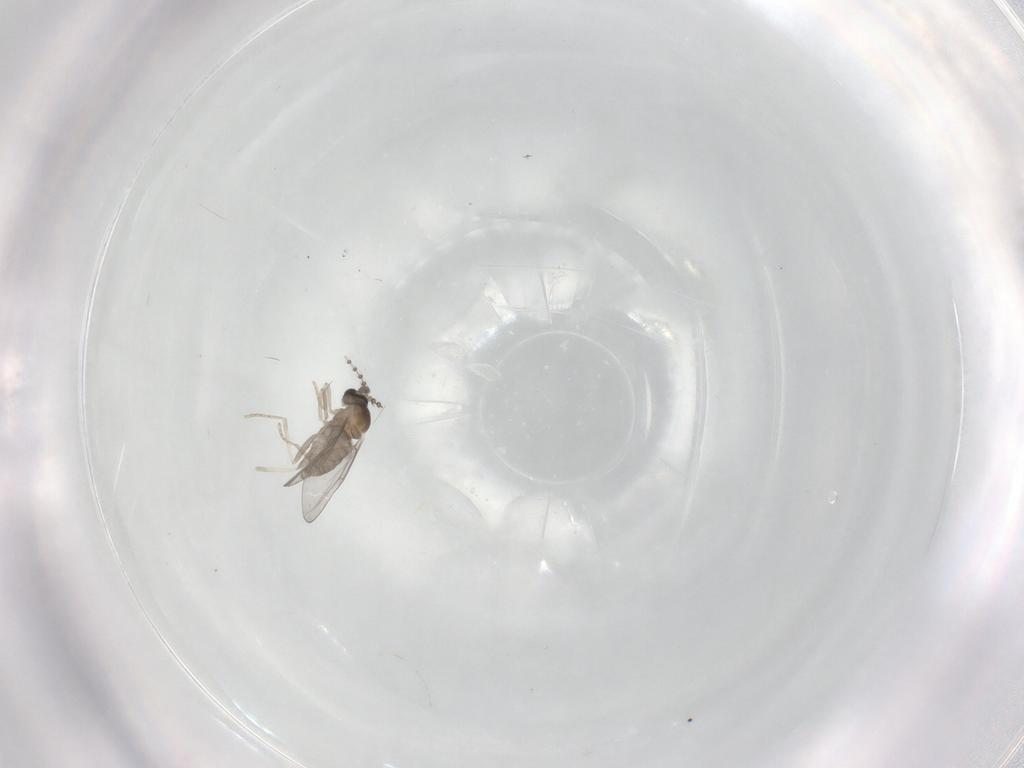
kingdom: Animalia
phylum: Arthropoda
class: Insecta
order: Diptera
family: Cecidomyiidae
